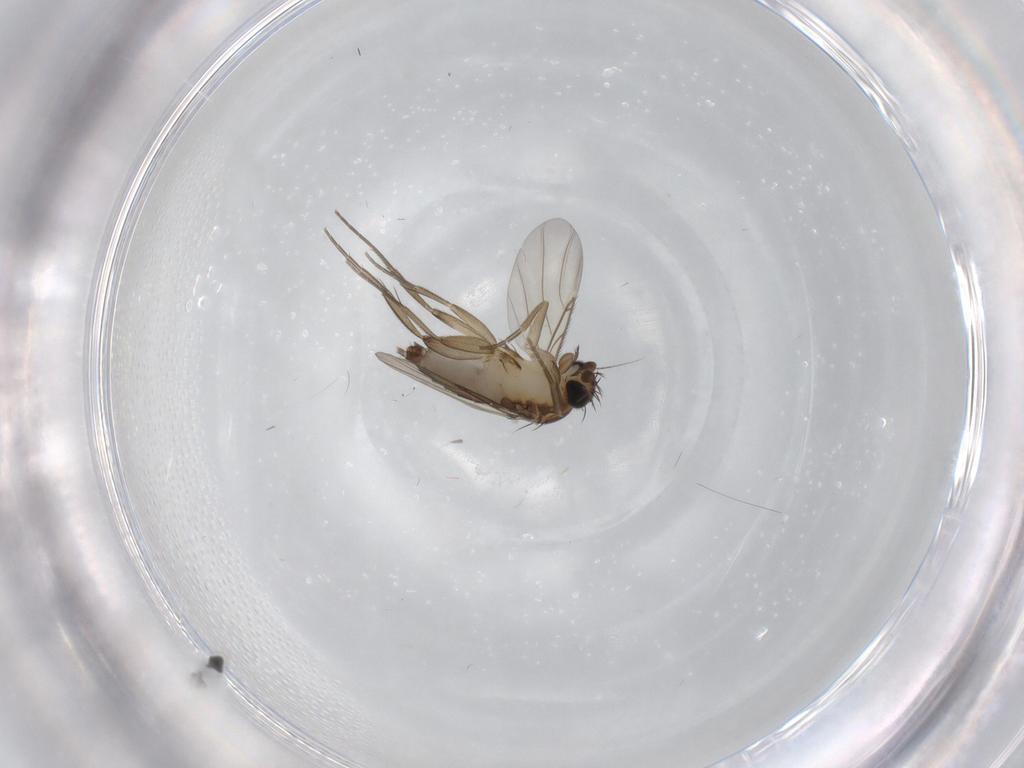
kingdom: Animalia
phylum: Arthropoda
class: Insecta
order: Diptera
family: Phoridae
